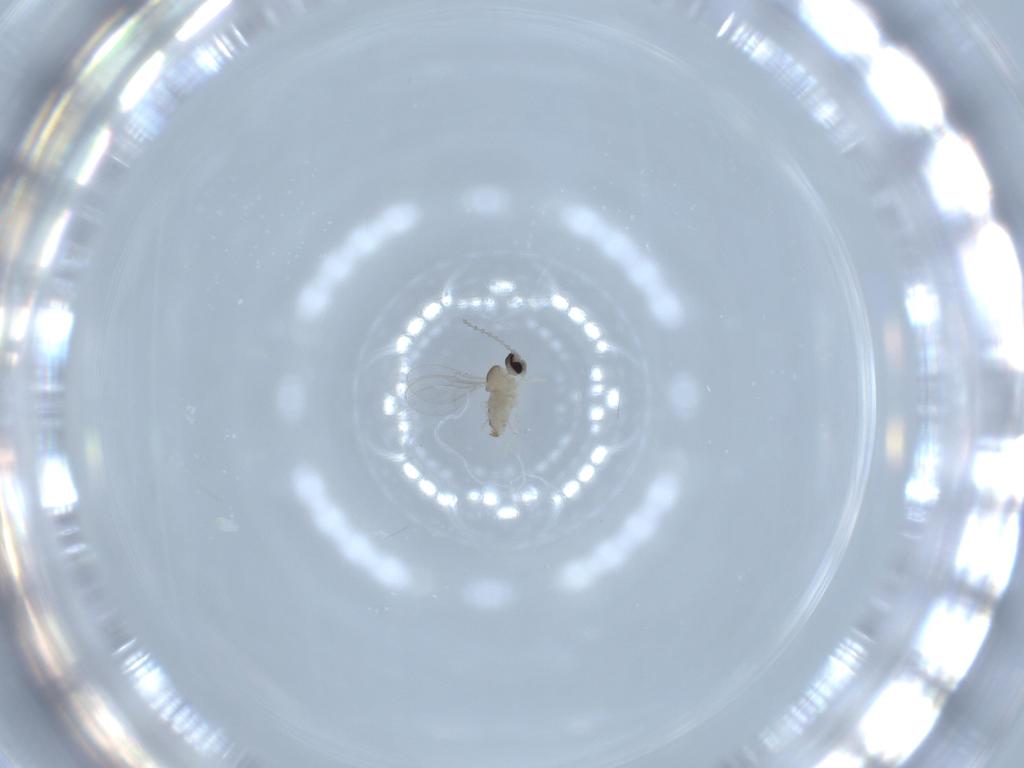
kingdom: Animalia
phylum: Arthropoda
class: Insecta
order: Diptera
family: Cecidomyiidae
